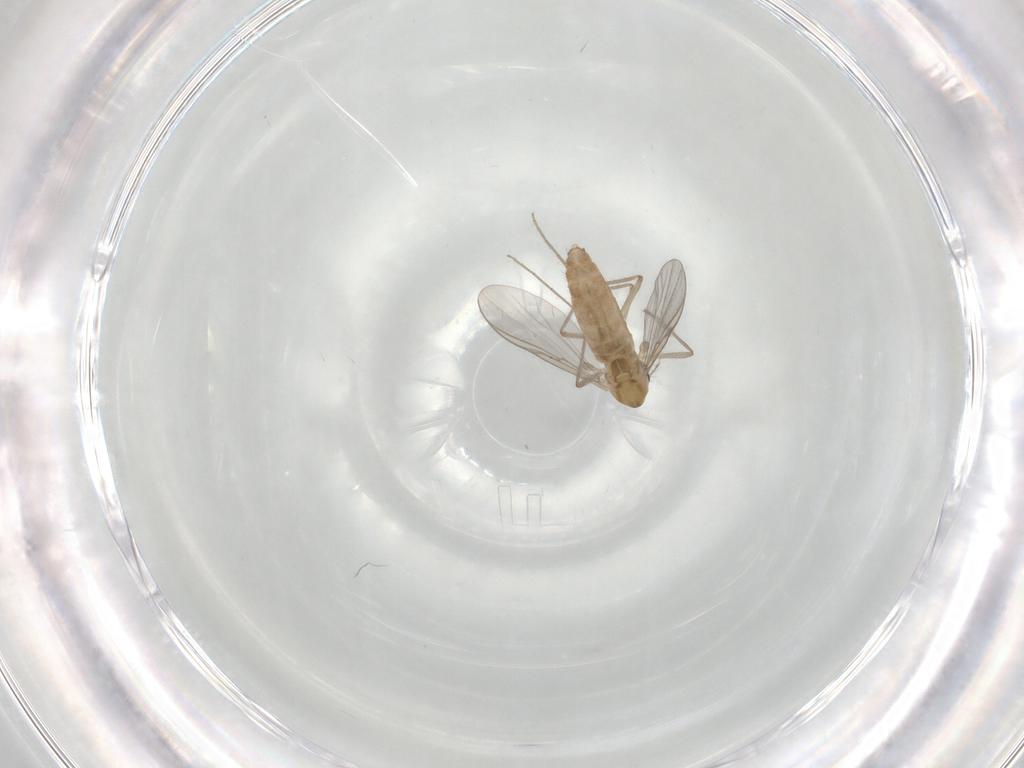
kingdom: Animalia
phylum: Arthropoda
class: Insecta
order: Diptera
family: Chironomidae
